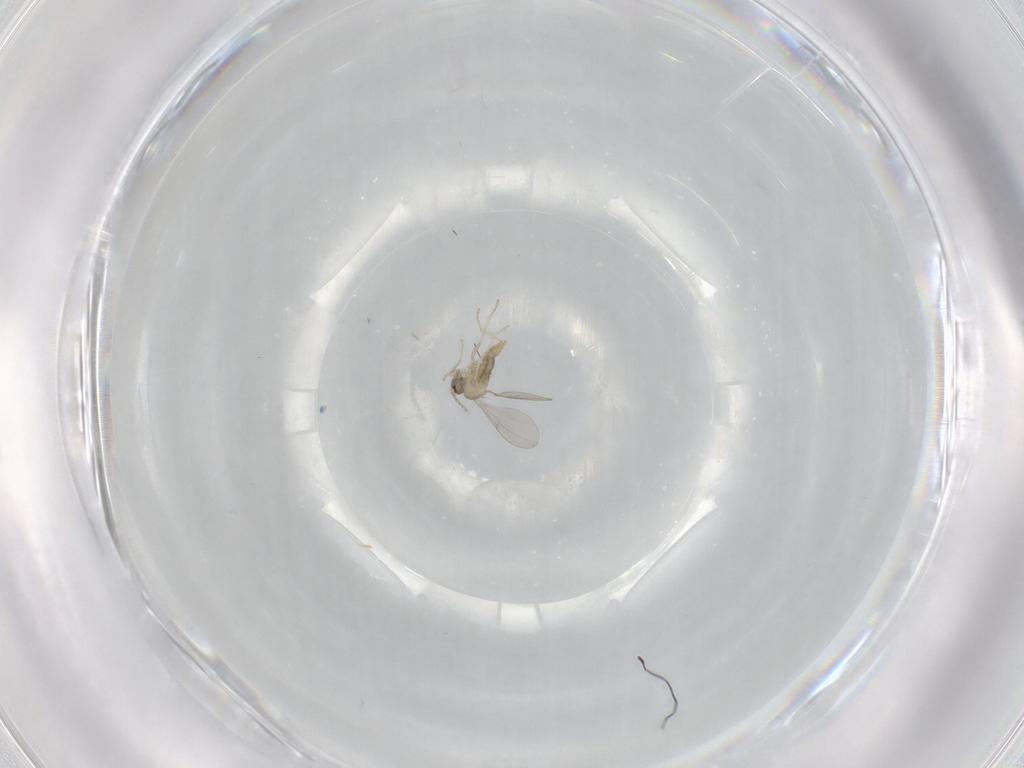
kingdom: Animalia
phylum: Arthropoda
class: Insecta
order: Diptera
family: Cecidomyiidae
